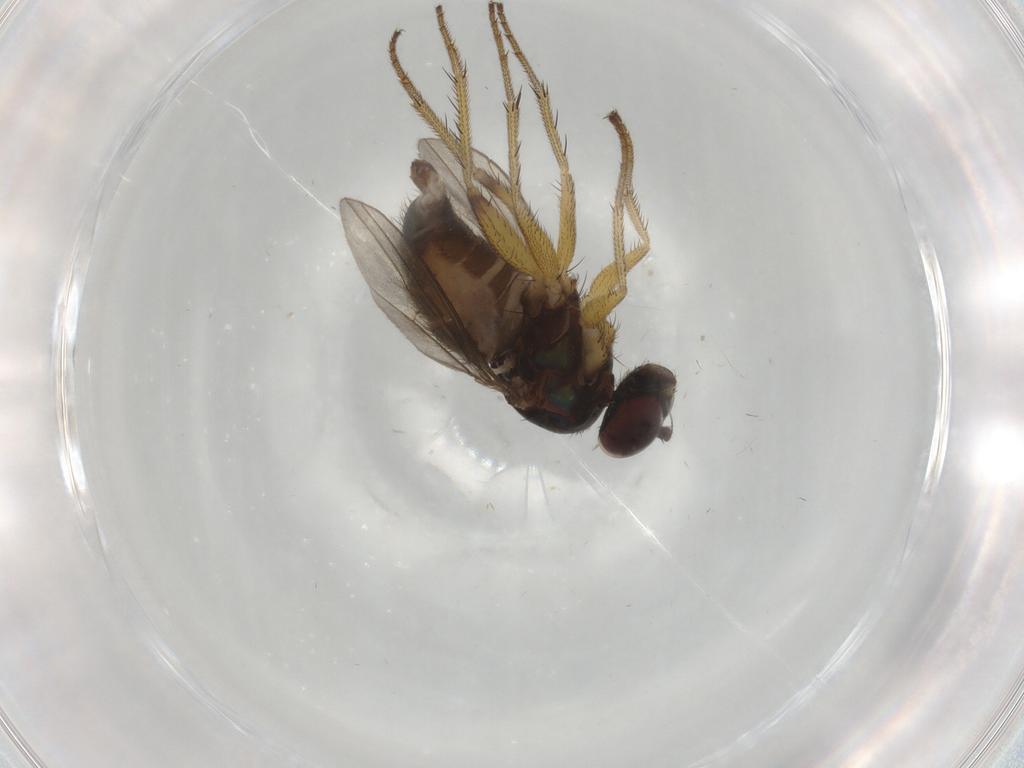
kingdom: Animalia
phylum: Arthropoda
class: Insecta
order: Diptera
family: Dolichopodidae
